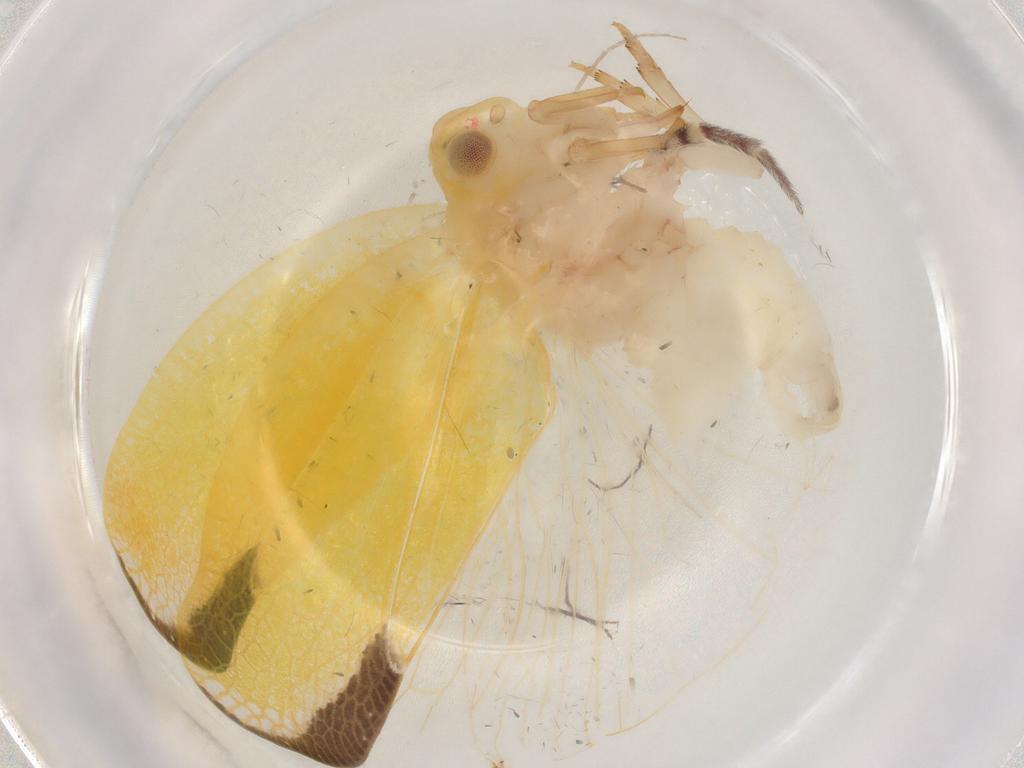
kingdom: Animalia
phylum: Arthropoda
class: Insecta
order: Hemiptera
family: Flatidae
